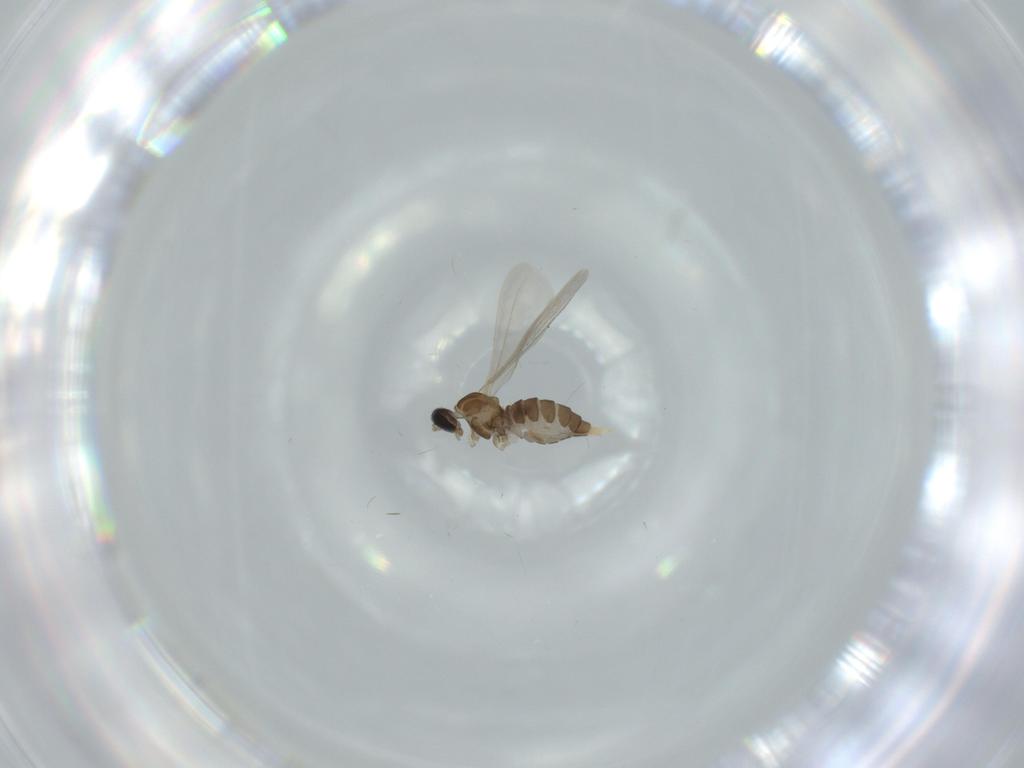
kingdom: Animalia
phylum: Arthropoda
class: Insecta
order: Diptera
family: Cecidomyiidae
